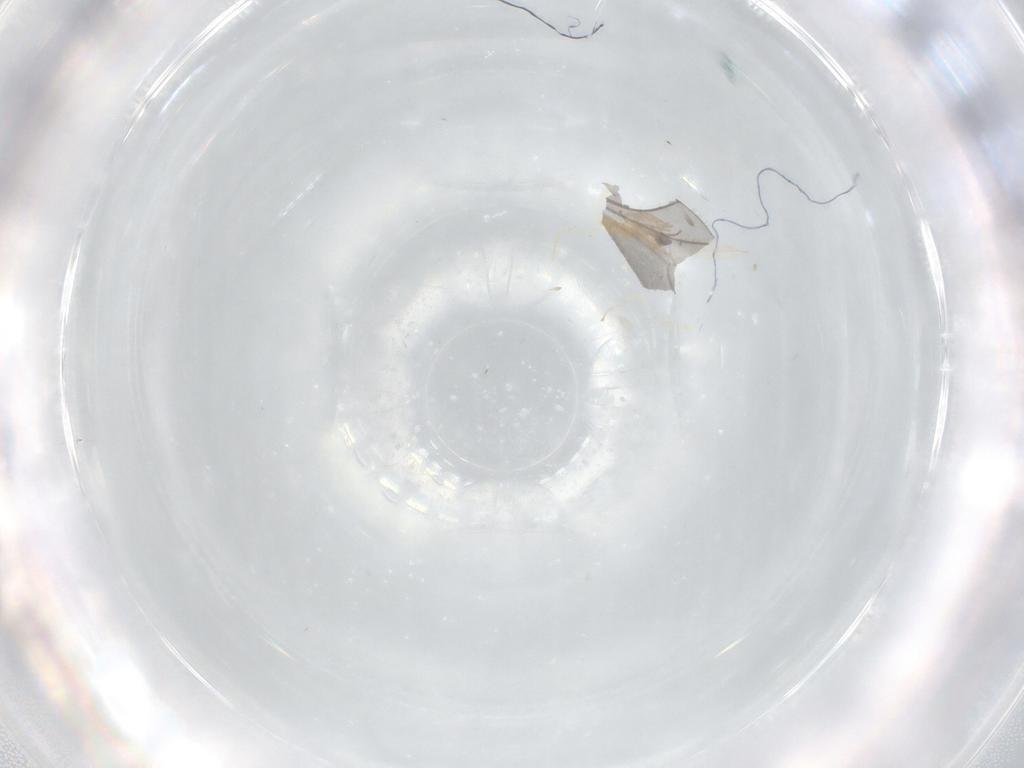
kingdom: Animalia
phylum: Arthropoda
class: Insecta
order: Diptera
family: Cecidomyiidae
